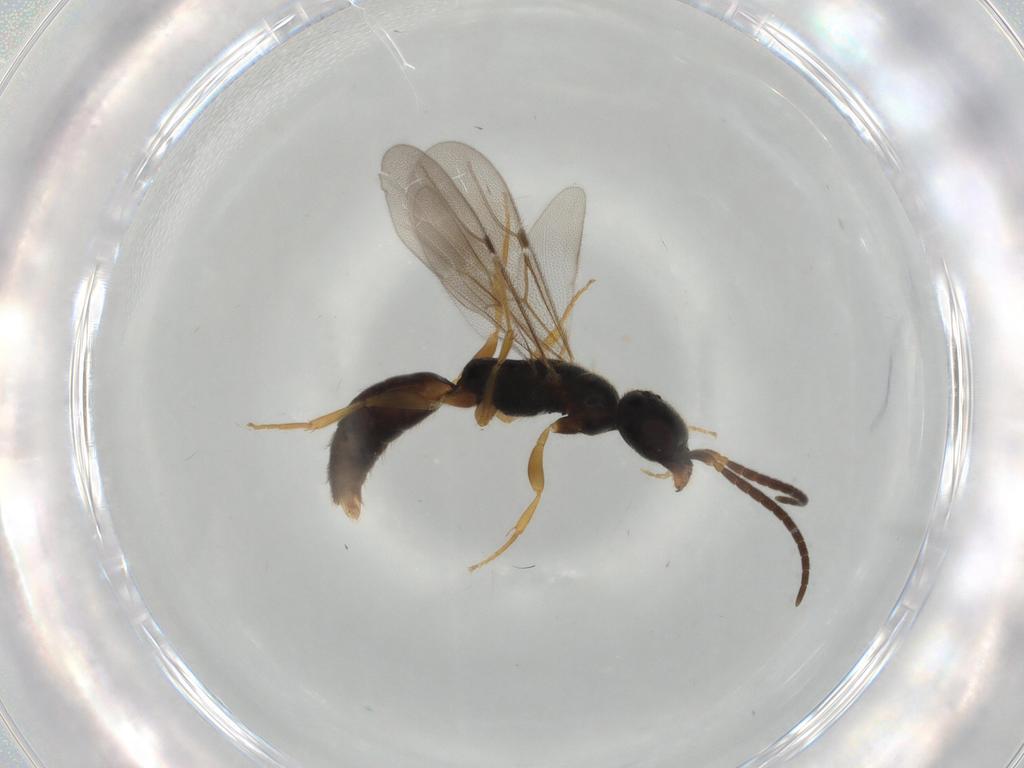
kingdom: Animalia
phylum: Arthropoda
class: Insecta
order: Hymenoptera
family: Bethylidae
